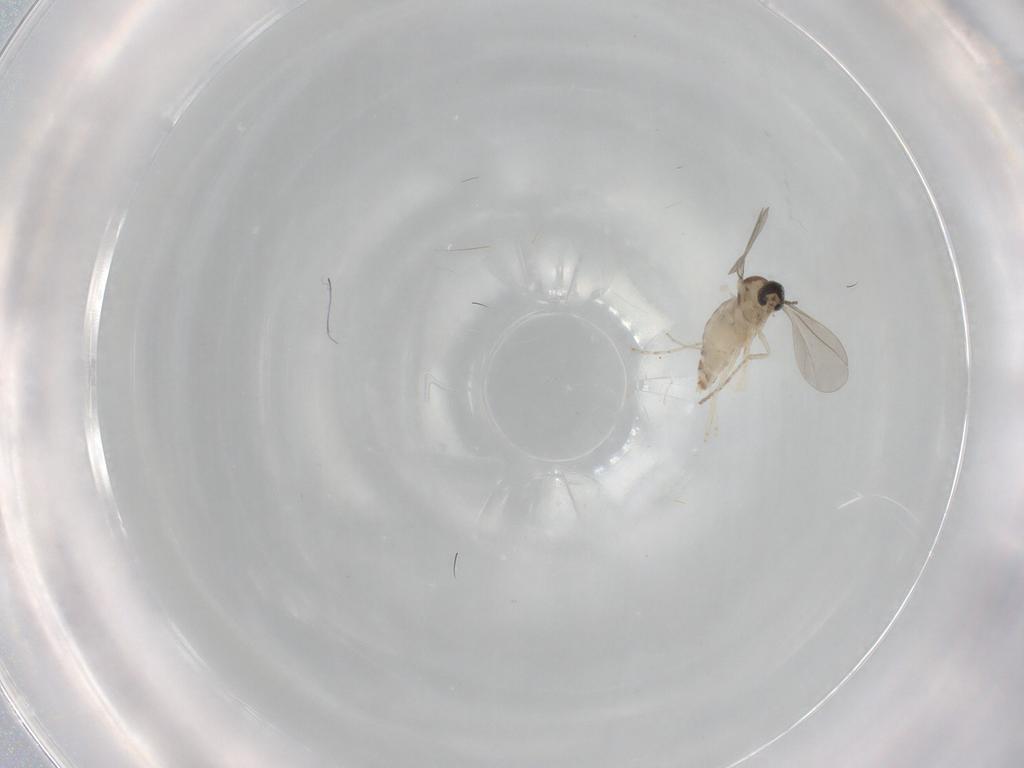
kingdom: Animalia
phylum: Arthropoda
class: Insecta
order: Diptera
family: Cecidomyiidae
